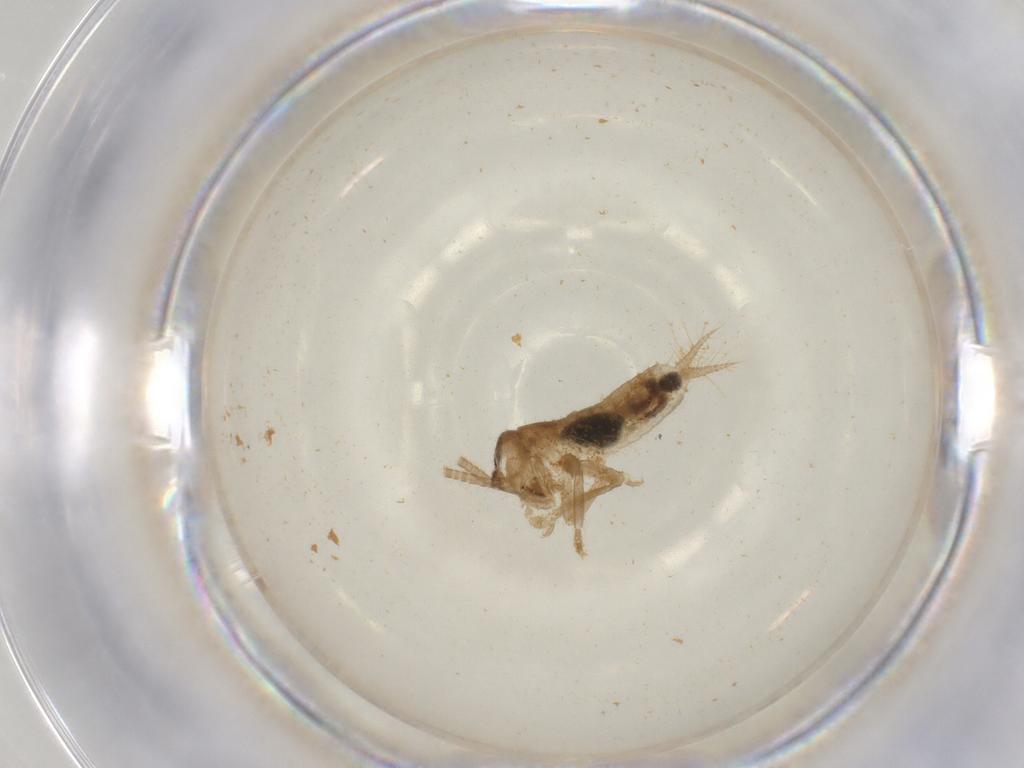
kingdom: Animalia
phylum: Arthropoda
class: Collembola
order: Symphypleona
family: Bourletiellidae
